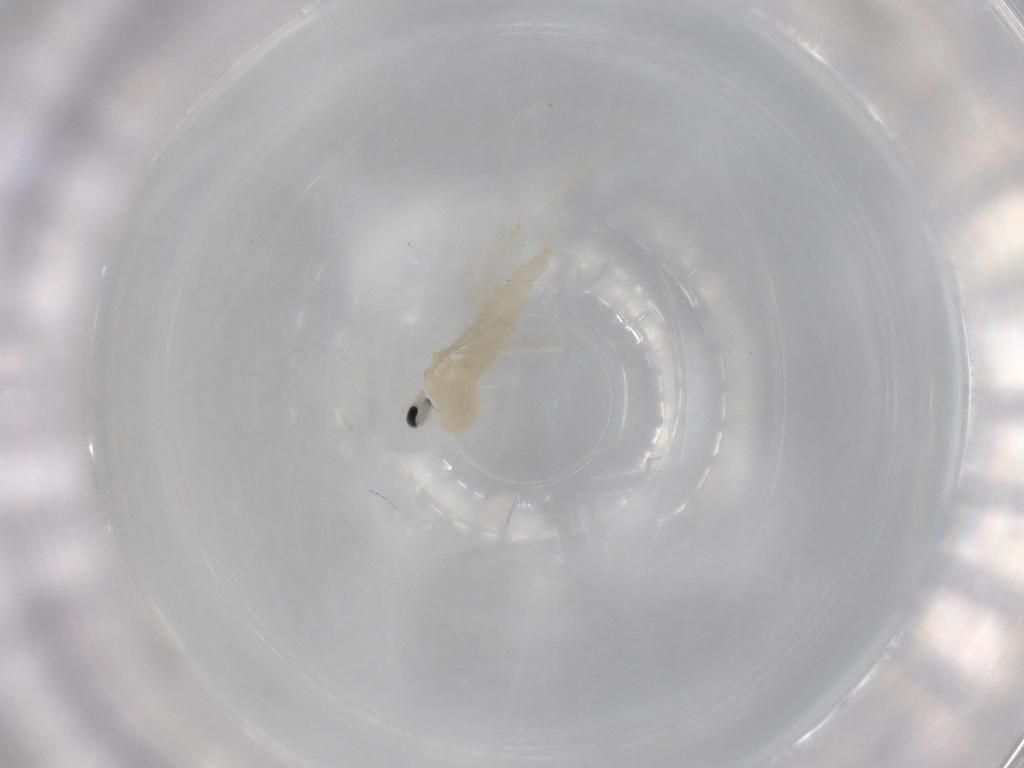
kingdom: Animalia
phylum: Arthropoda
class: Insecta
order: Diptera
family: Cecidomyiidae
